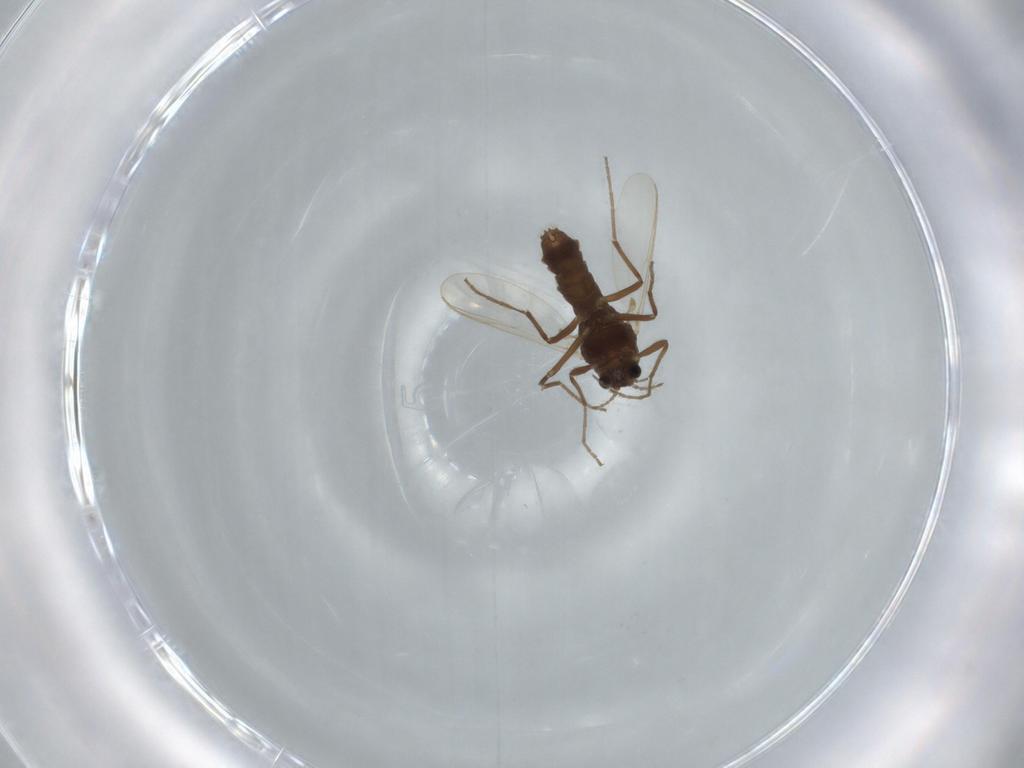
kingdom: Animalia
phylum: Arthropoda
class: Insecta
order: Diptera
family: Chironomidae
